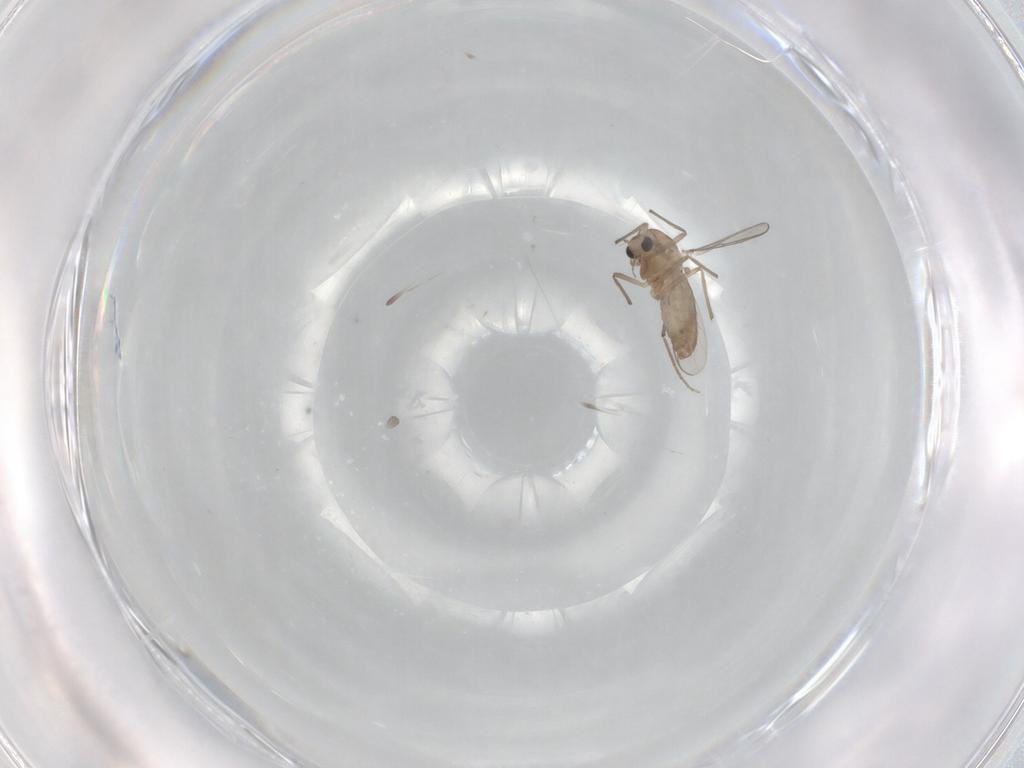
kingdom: Animalia
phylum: Arthropoda
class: Insecta
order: Diptera
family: Chironomidae
